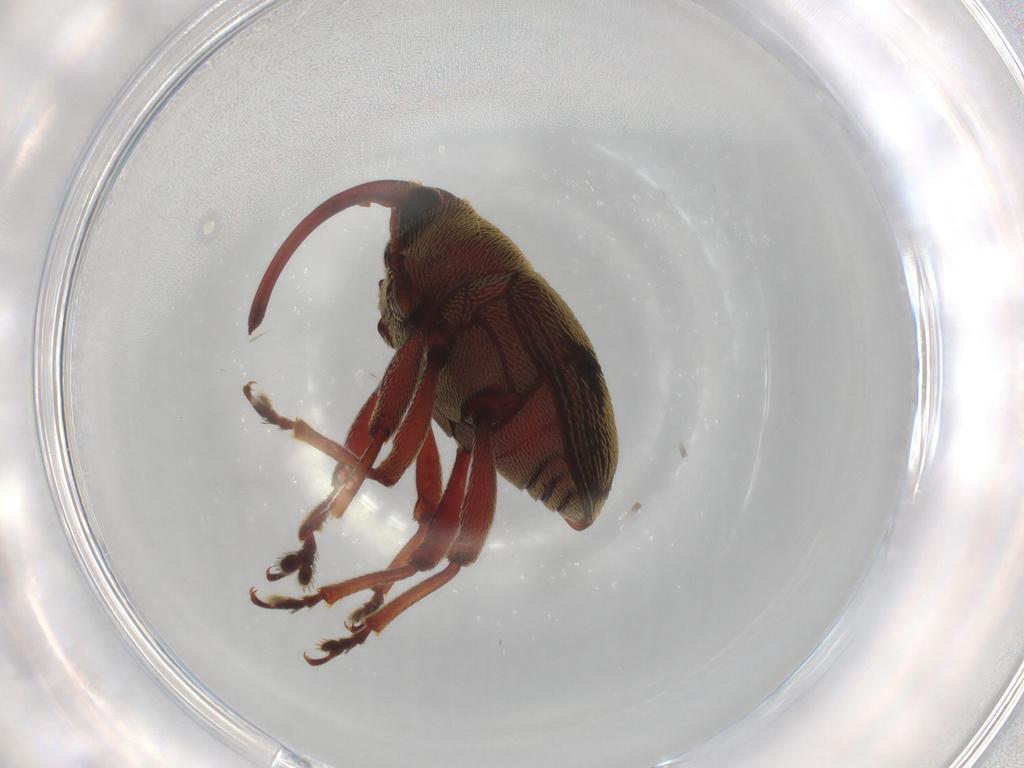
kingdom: Animalia
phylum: Arthropoda
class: Insecta
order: Coleoptera
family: Curculionidae
